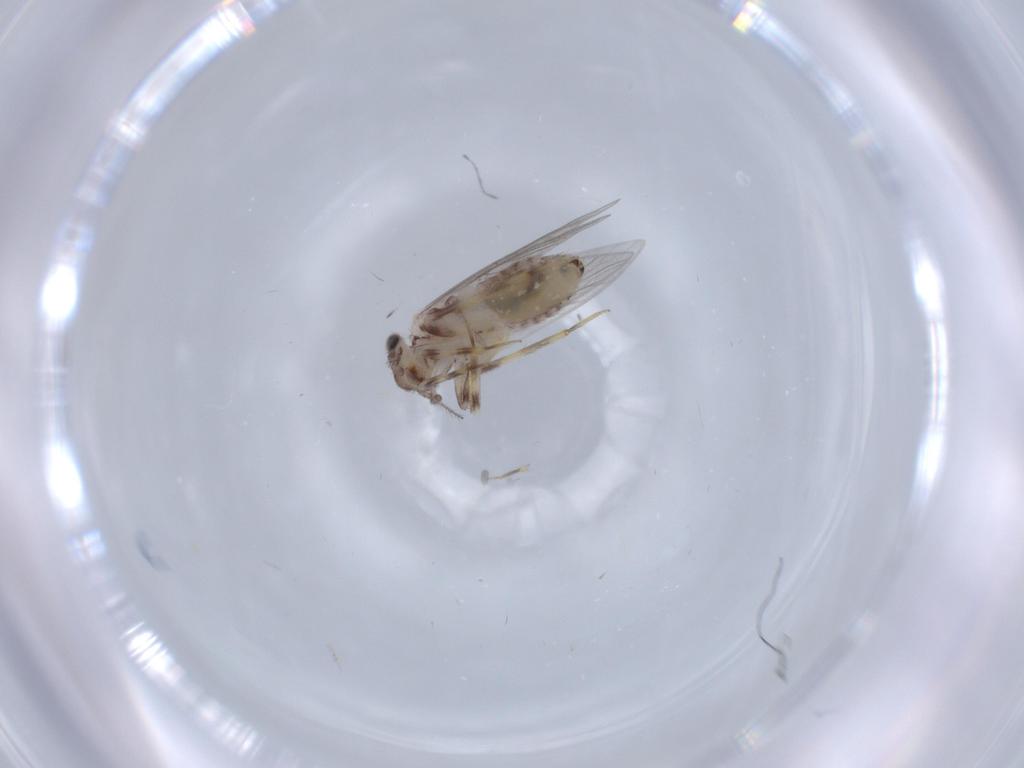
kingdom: Animalia
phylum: Arthropoda
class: Insecta
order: Psocodea
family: Lepidopsocidae
